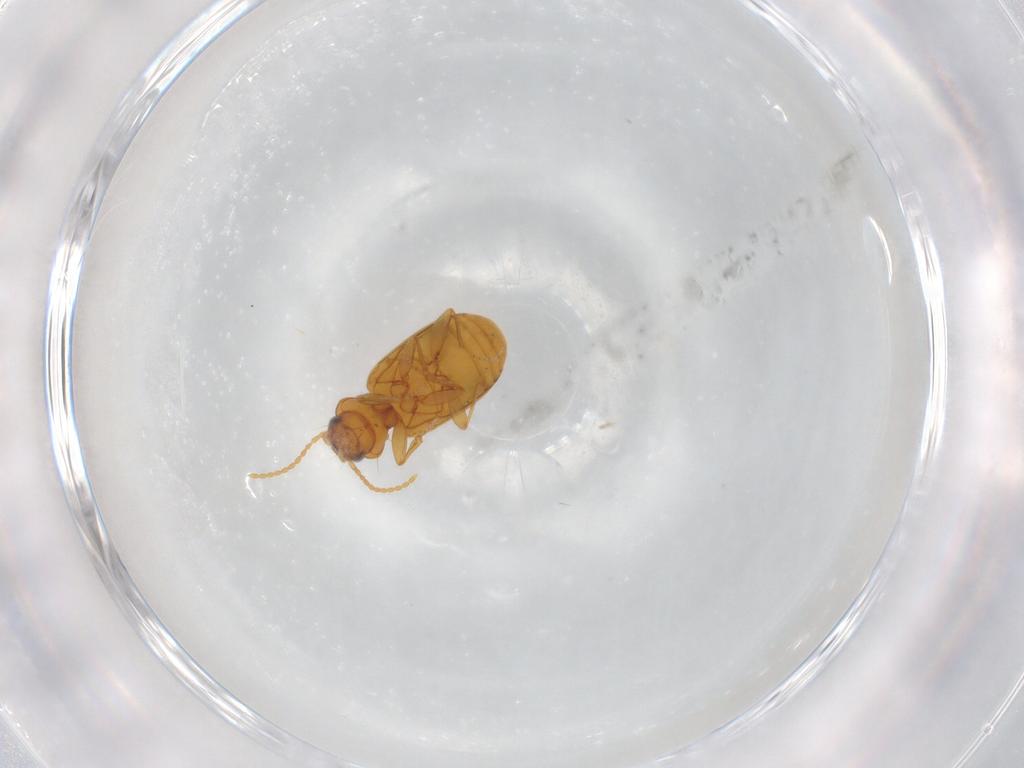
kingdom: Animalia
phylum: Arthropoda
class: Insecta
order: Coleoptera
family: Carabidae
